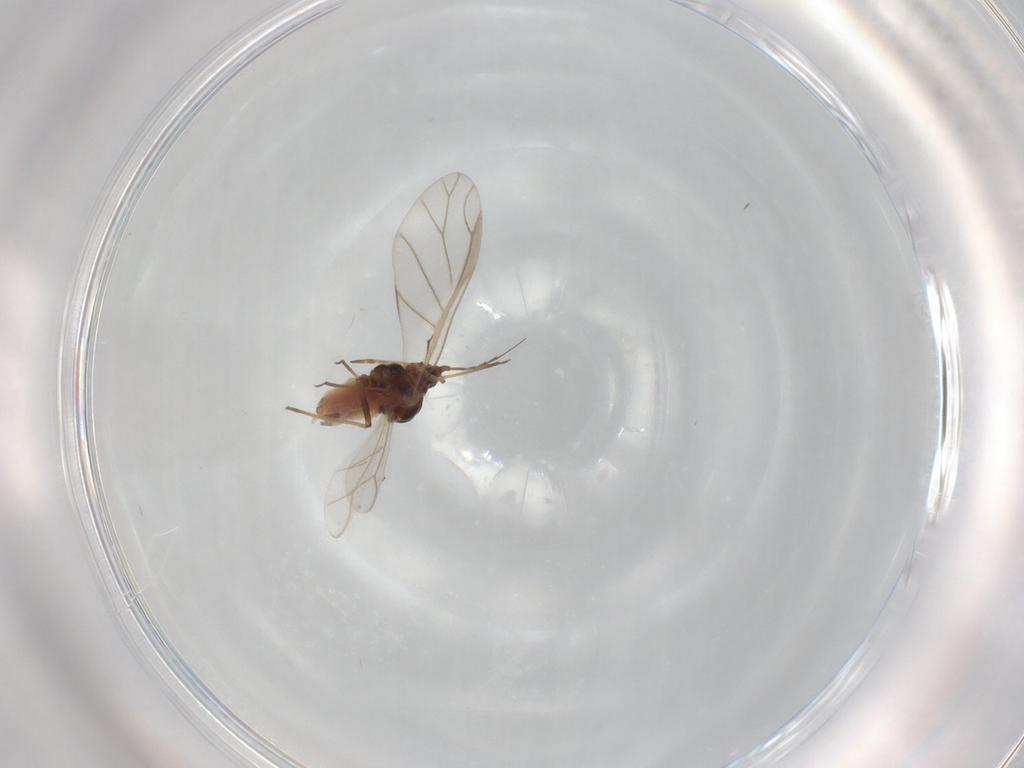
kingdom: Animalia
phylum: Arthropoda
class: Insecta
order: Hemiptera
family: Aphididae
